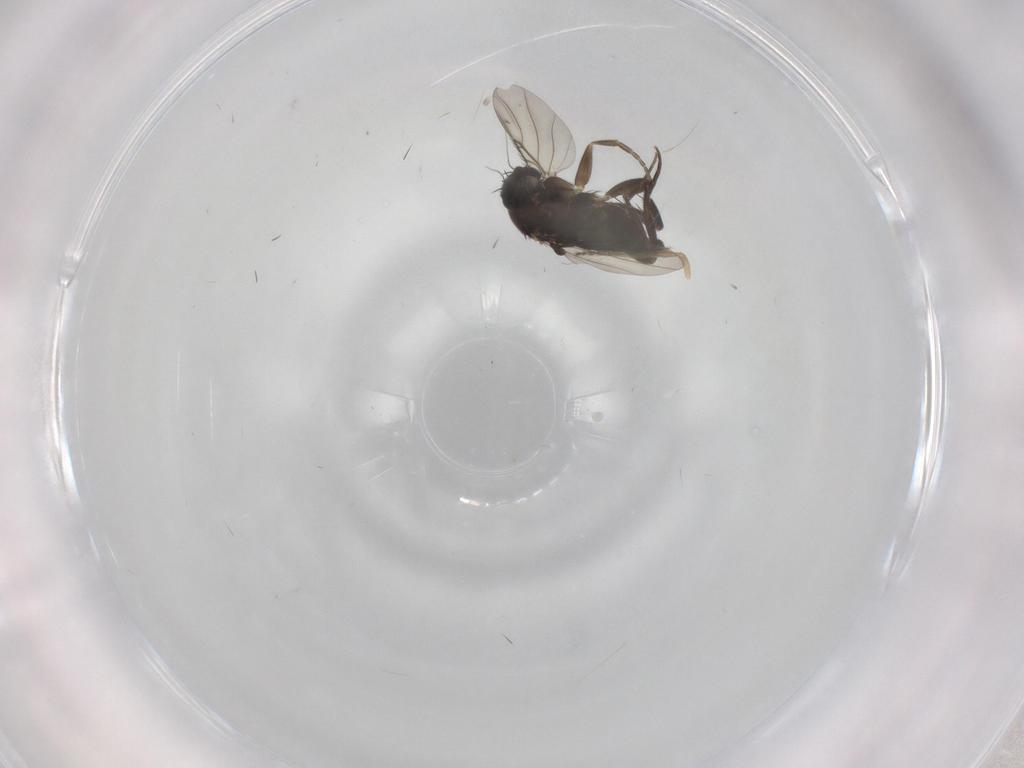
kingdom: Animalia
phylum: Arthropoda
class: Insecta
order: Diptera
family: Phoridae
